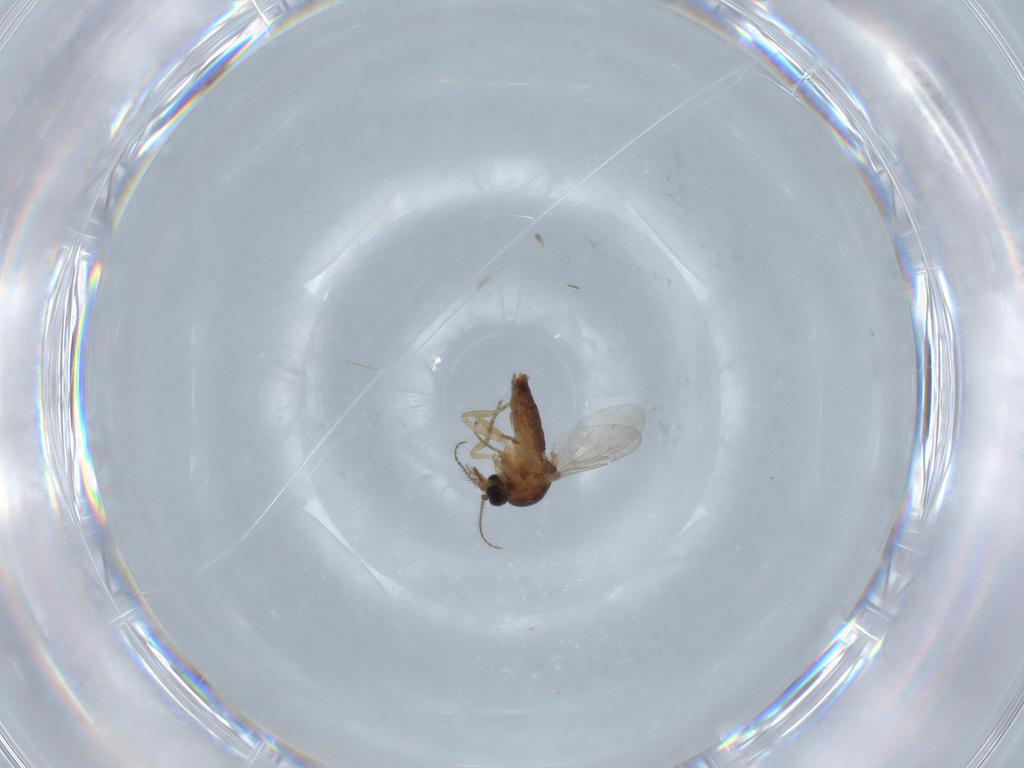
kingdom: Animalia
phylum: Arthropoda
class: Insecta
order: Diptera
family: Ceratopogonidae
